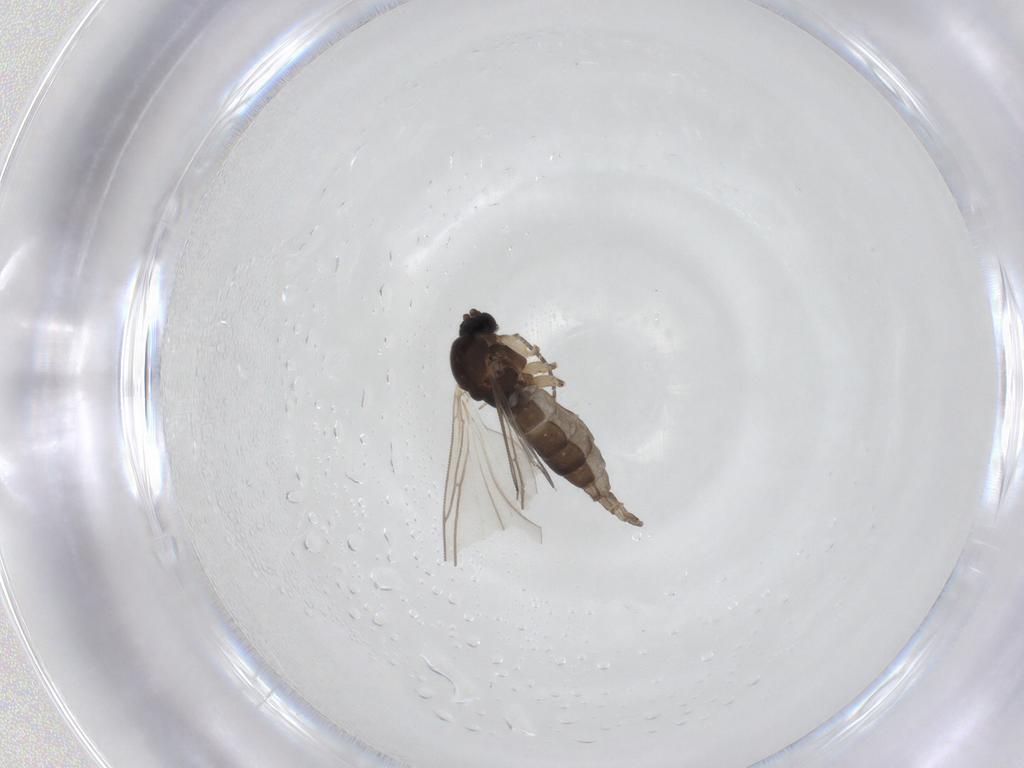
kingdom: Animalia
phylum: Arthropoda
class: Insecta
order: Diptera
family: Sciaridae
